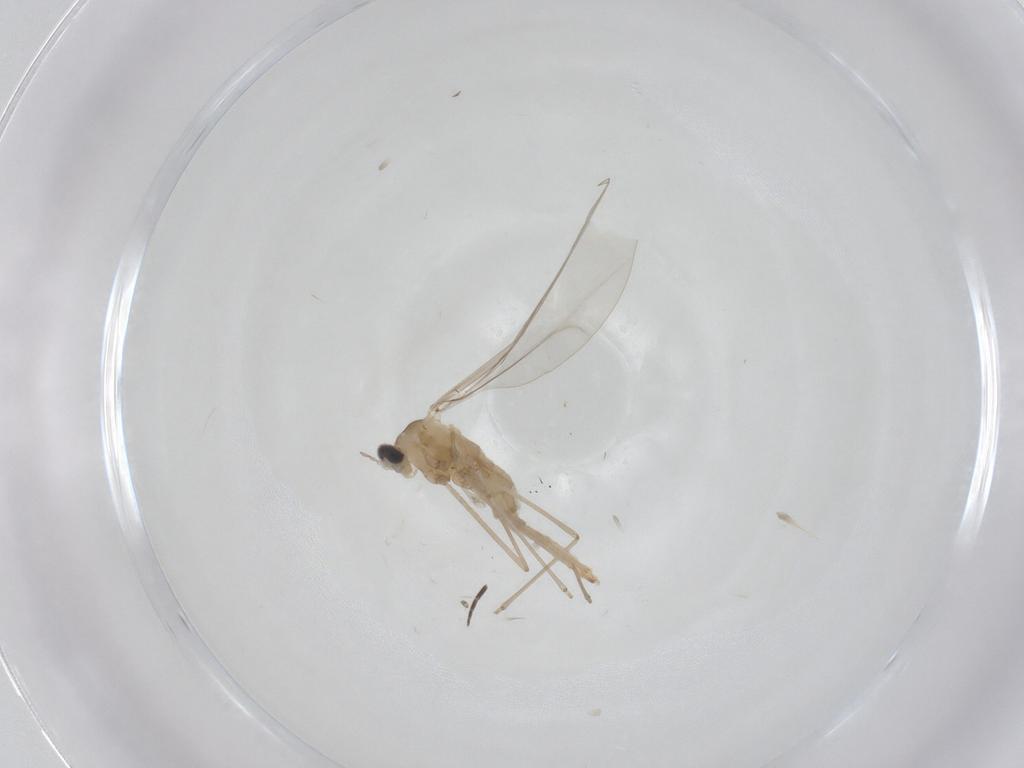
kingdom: Animalia
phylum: Arthropoda
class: Insecta
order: Diptera
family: Phoridae
